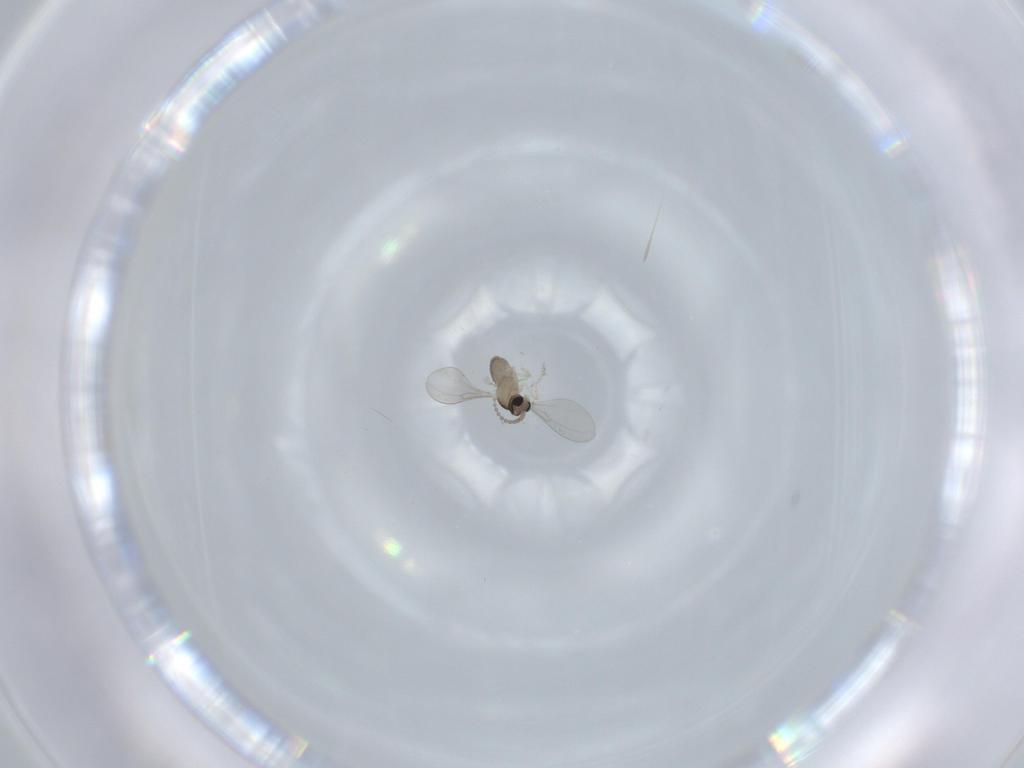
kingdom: Animalia
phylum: Arthropoda
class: Insecta
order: Diptera
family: Cecidomyiidae
